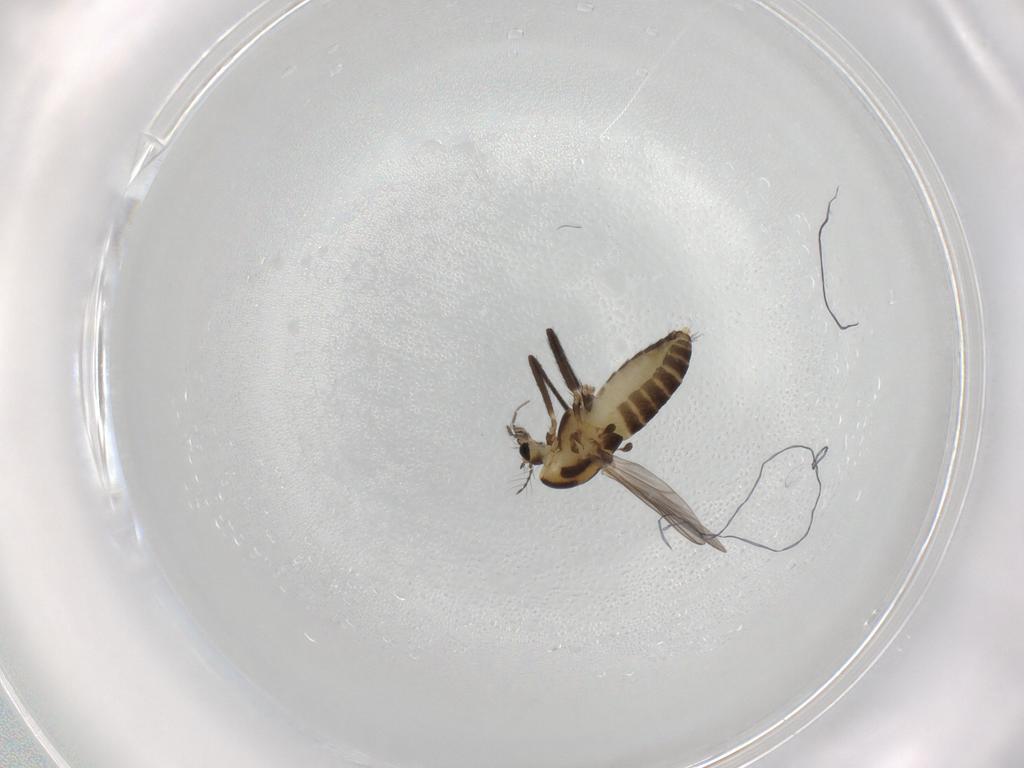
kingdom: Animalia
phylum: Arthropoda
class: Insecta
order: Diptera
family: Chironomidae
